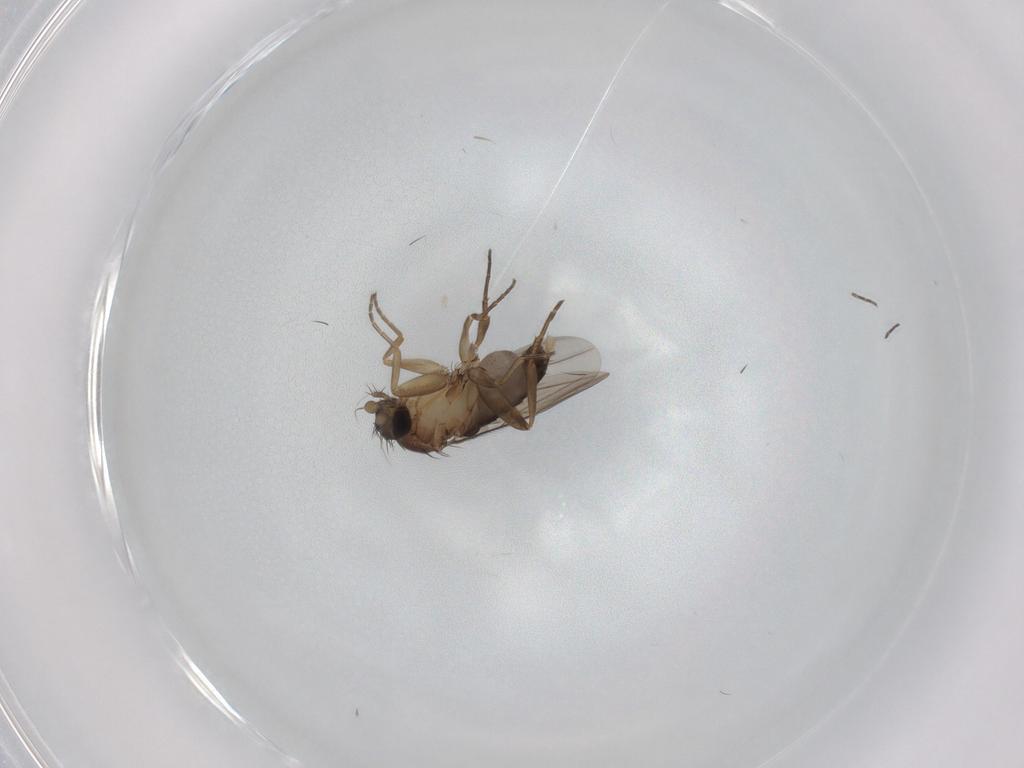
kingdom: Animalia
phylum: Arthropoda
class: Insecta
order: Diptera
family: Phoridae
